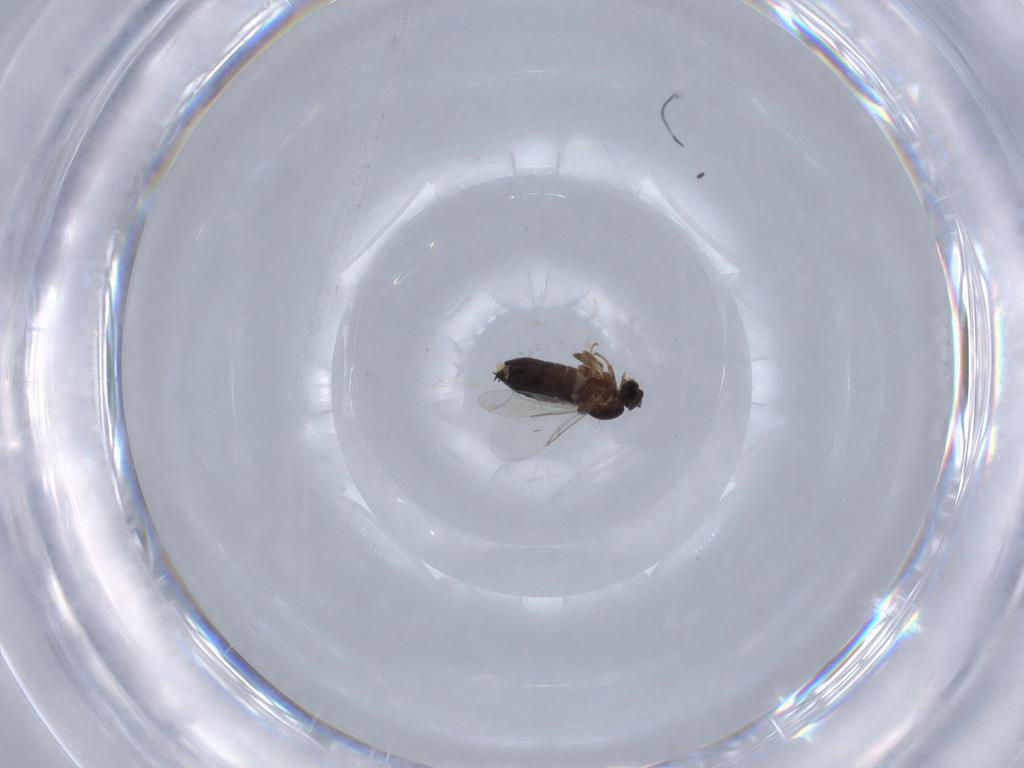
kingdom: Animalia
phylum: Arthropoda
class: Insecta
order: Diptera
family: Scatopsidae
